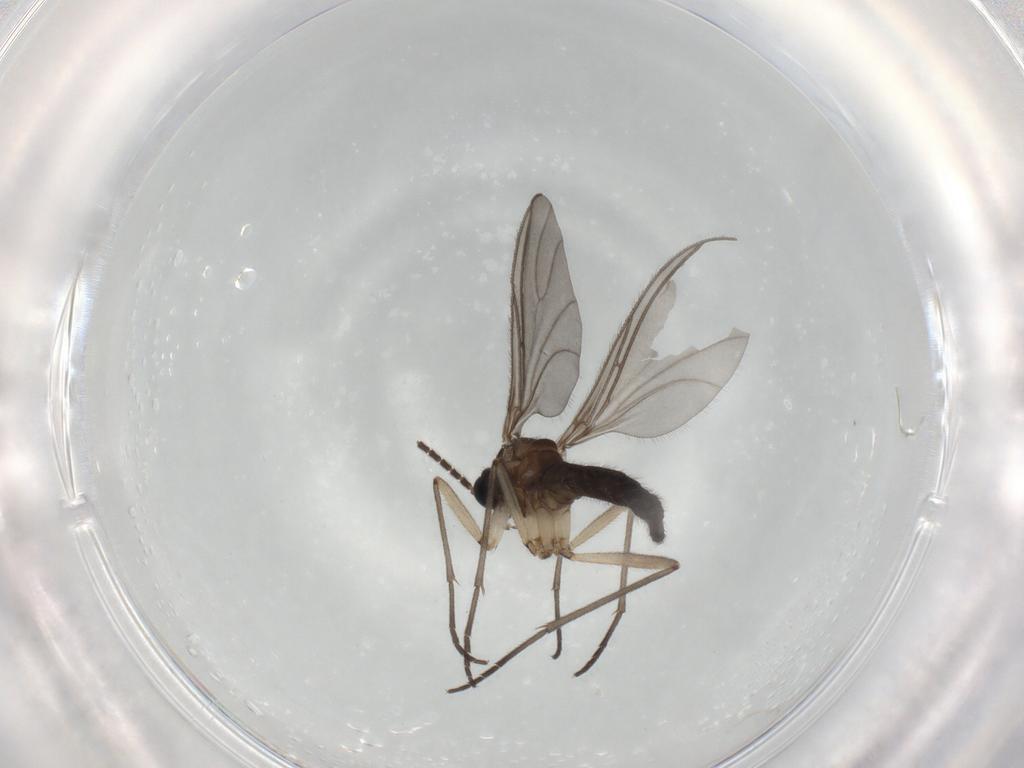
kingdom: Animalia
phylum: Arthropoda
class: Insecta
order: Diptera
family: Sciaridae
